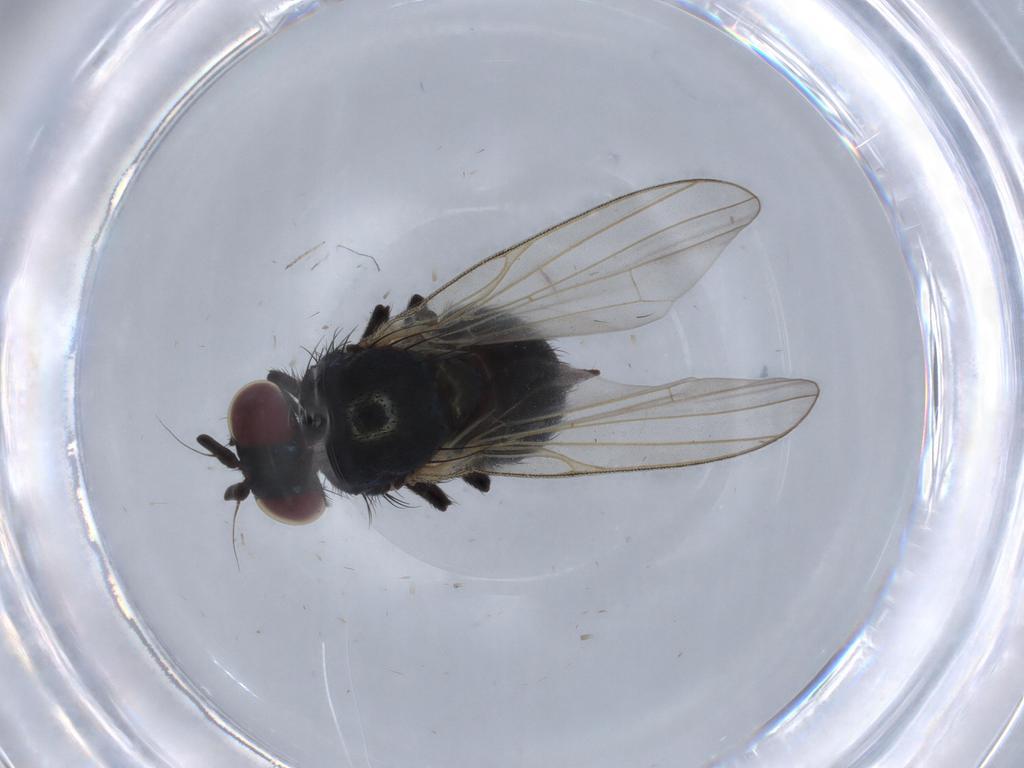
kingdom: Animalia
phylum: Arthropoda
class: Insecta
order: Diptera
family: Lonchaeidae
